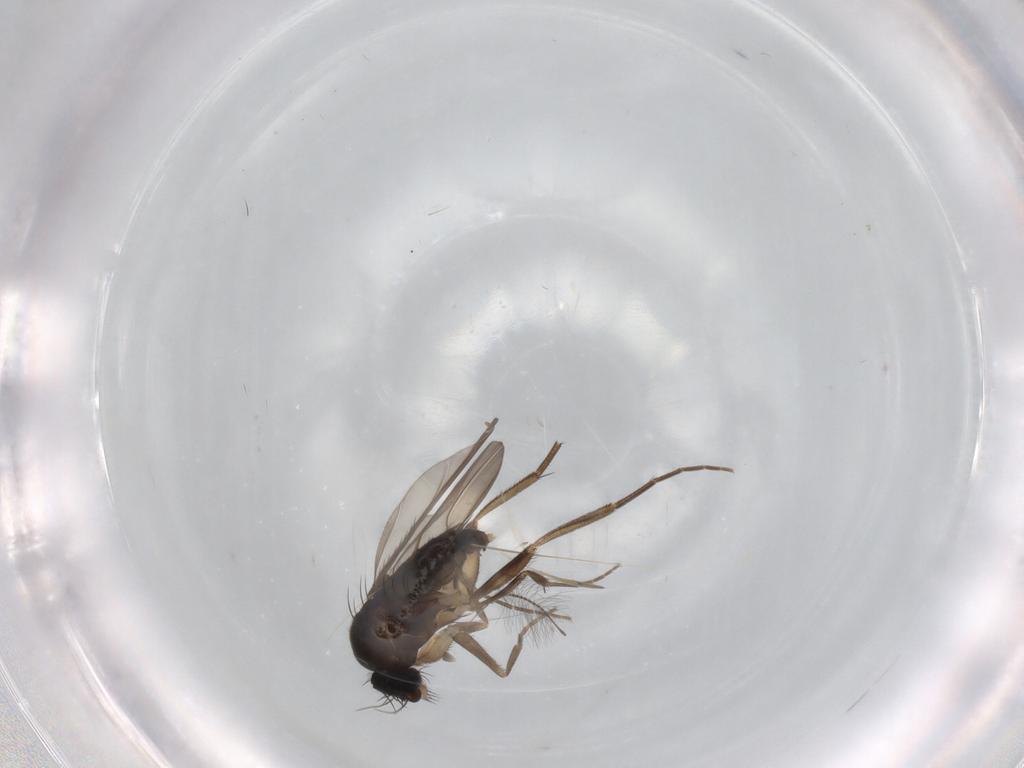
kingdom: Animalia
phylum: Arthropoda
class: Insecta
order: Diptera
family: Phoridae
